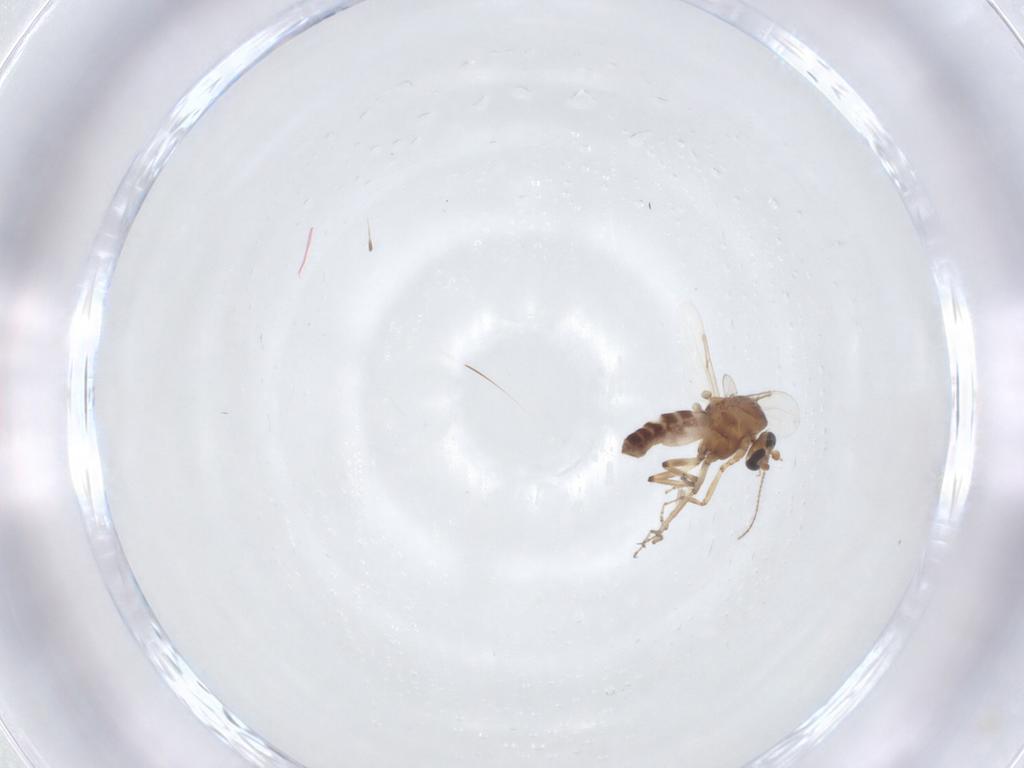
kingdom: Animalia
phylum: Arthropoda
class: Insecta
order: Diptera
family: Ceratopogonidae
